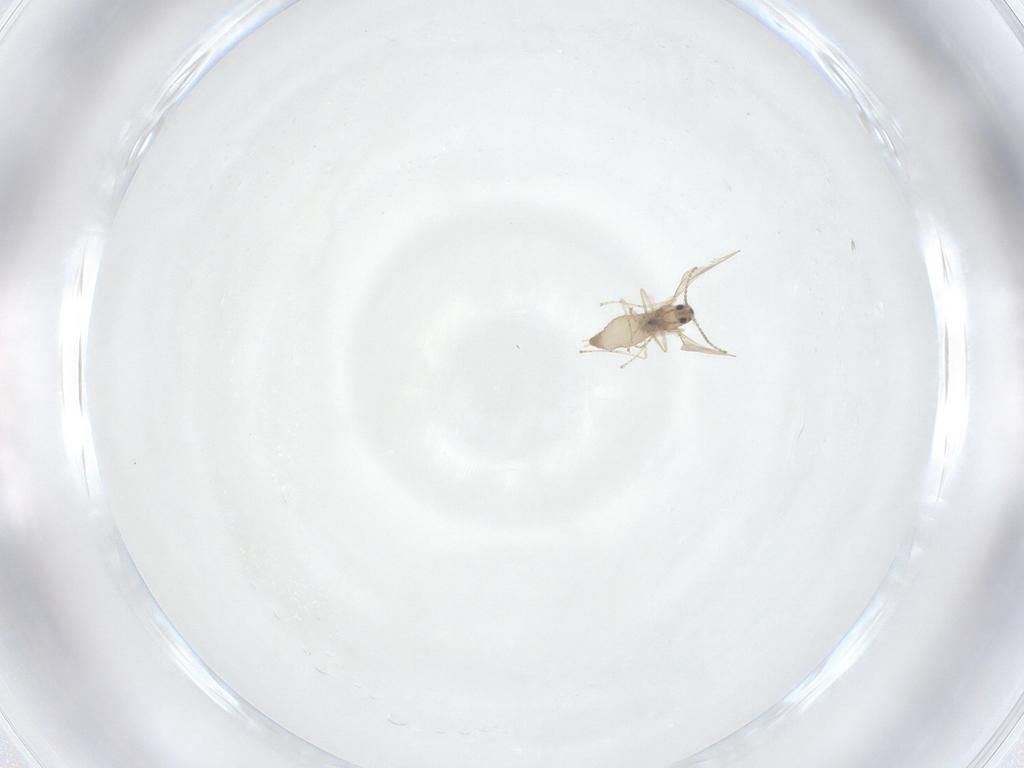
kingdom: Animalia
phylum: Arthropoda
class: Insecta
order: Diptera
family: Cecidomyiidae
